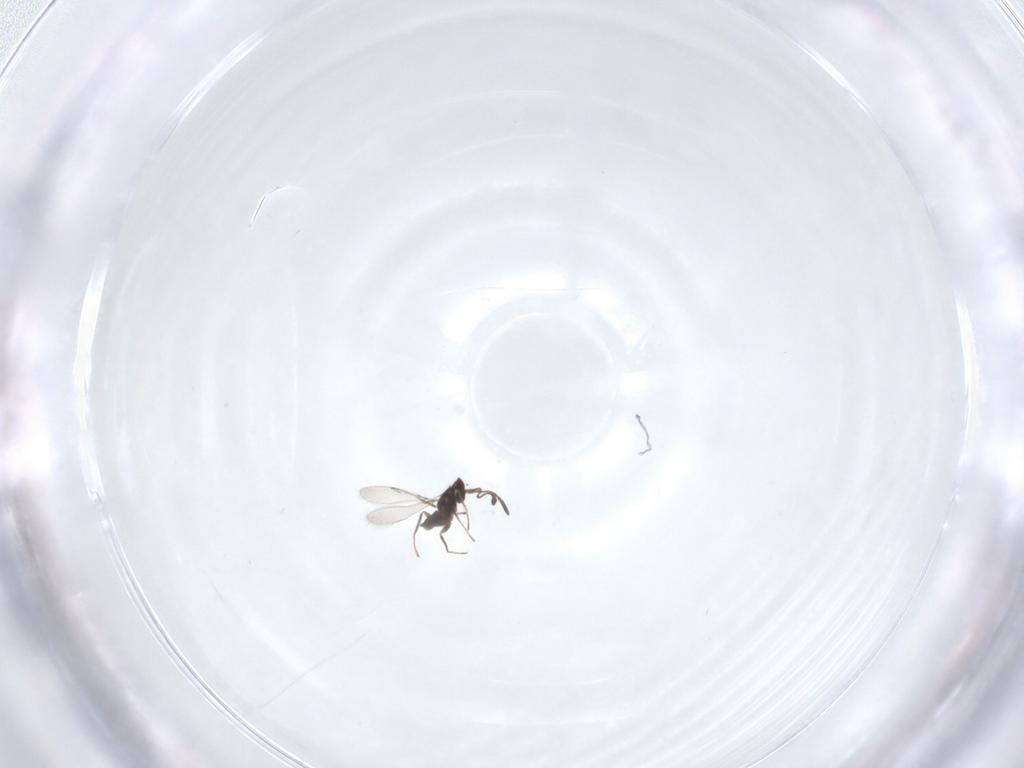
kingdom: Animalia
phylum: Arthropoda
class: Insecta
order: Hymenoptera
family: Mymaridae
